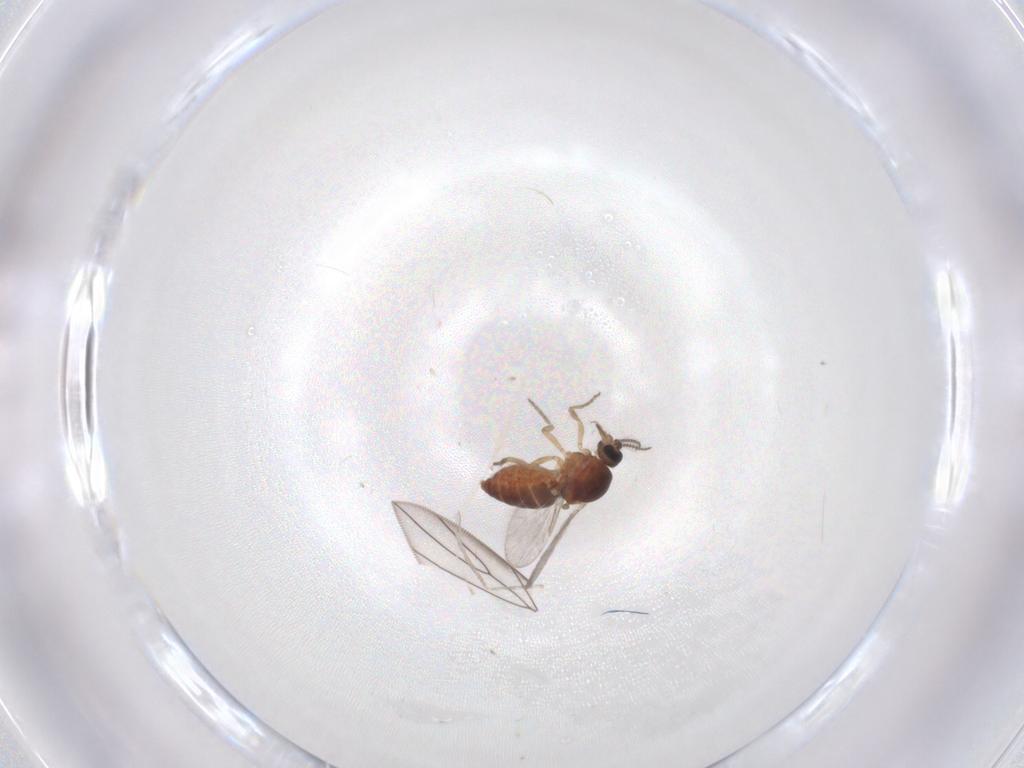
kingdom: Animalia
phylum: Arthropoda
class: Insecta
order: Diptera
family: Ceratopogonidae
